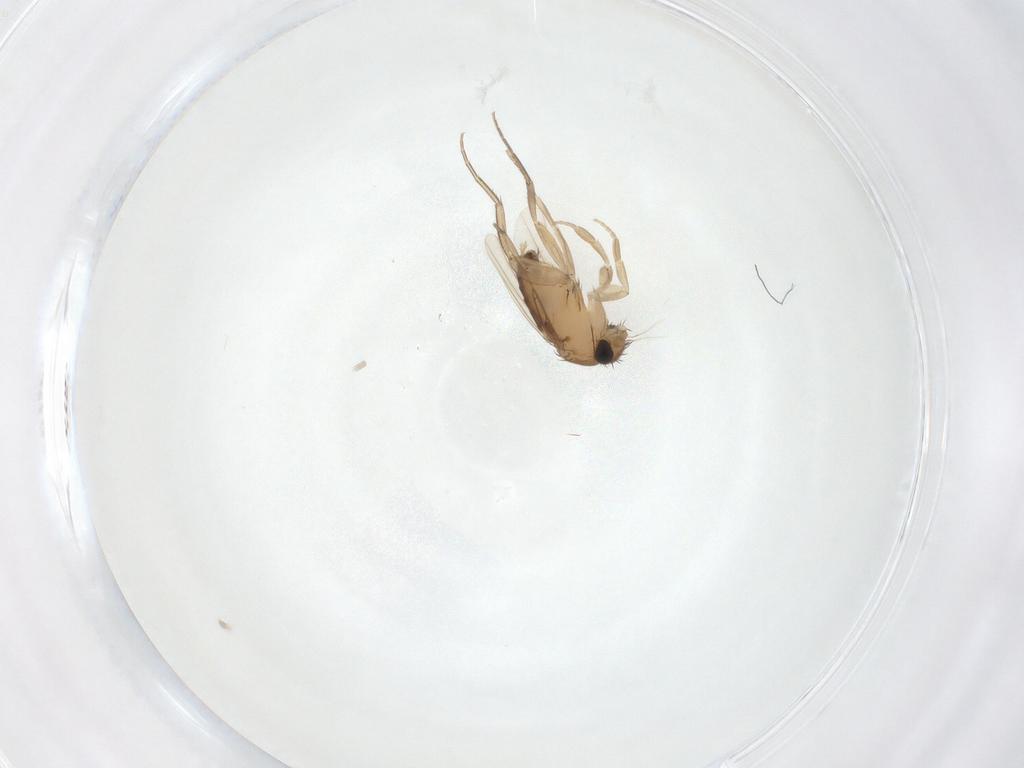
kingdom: Animalia
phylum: Arthropoda
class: Insecta
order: Diptera
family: Phoridae
